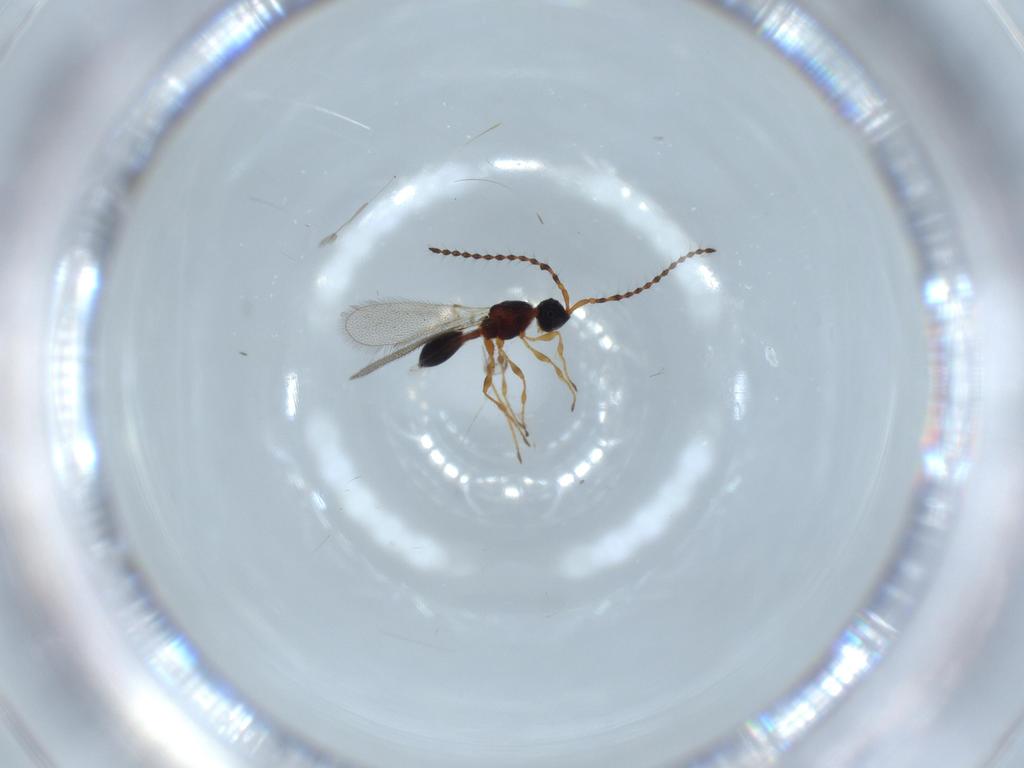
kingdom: Animalia
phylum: Arthropoda
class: Insecta
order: Hymenoptera
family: Diapriidae
